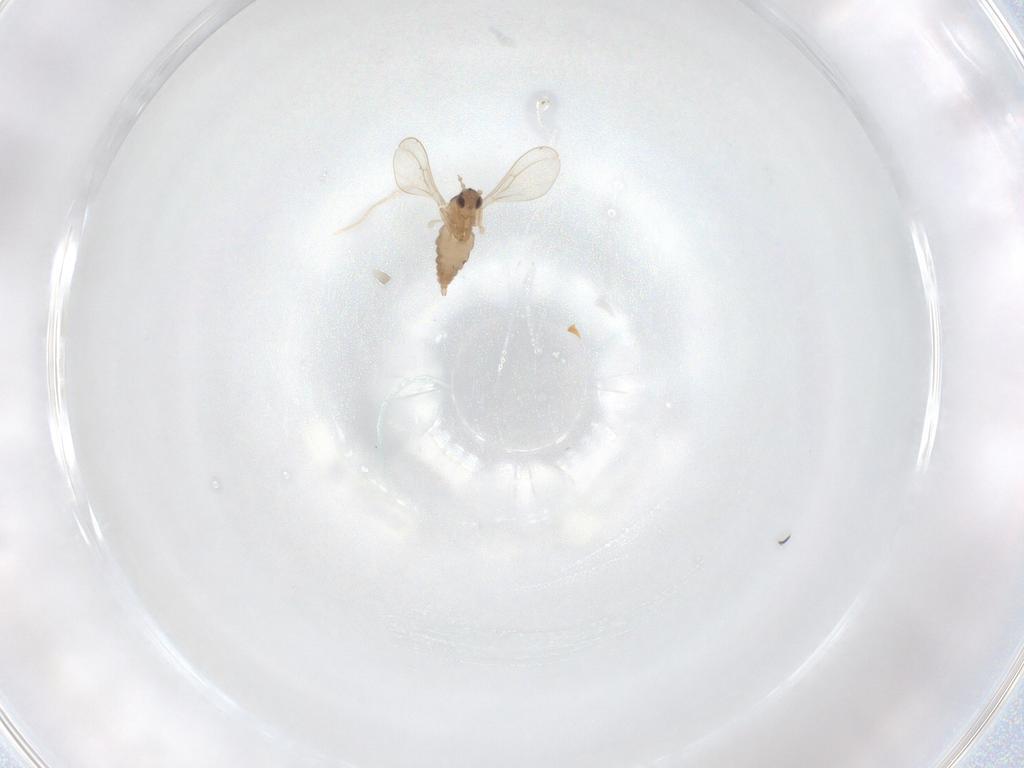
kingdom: Animalia
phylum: Arthropoda
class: Insecta
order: Diptera
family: Cecidomyiidae
